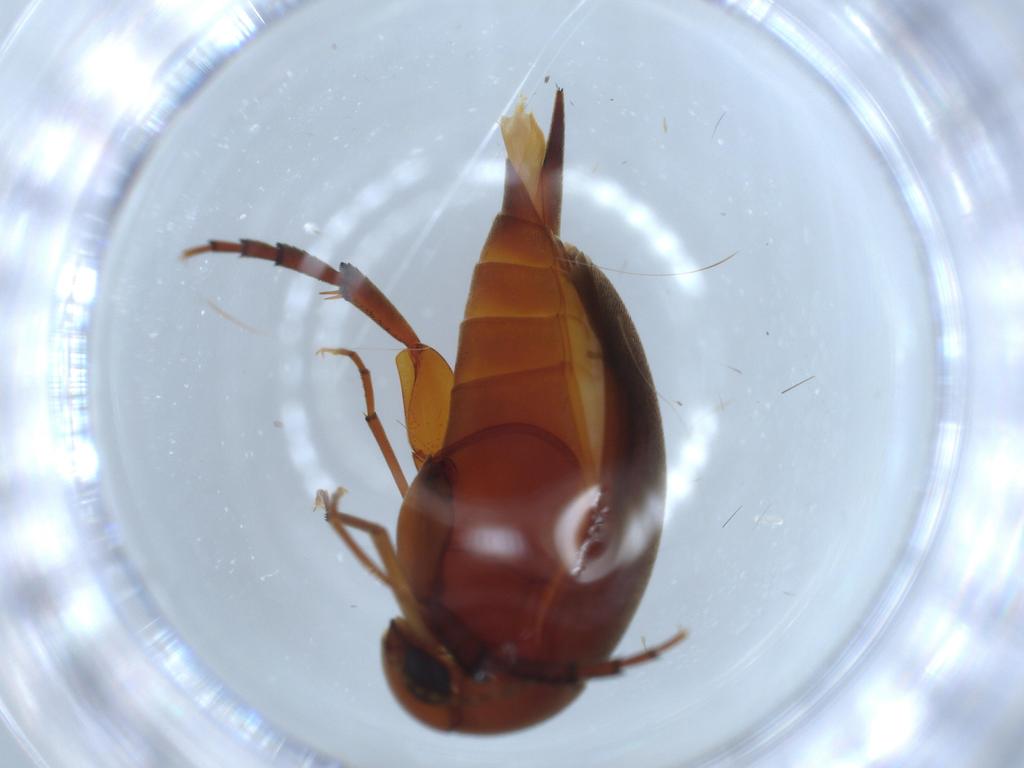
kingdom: Animalia
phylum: Arthropoda
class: Insecta
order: Coleoptera
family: Mordellidae
